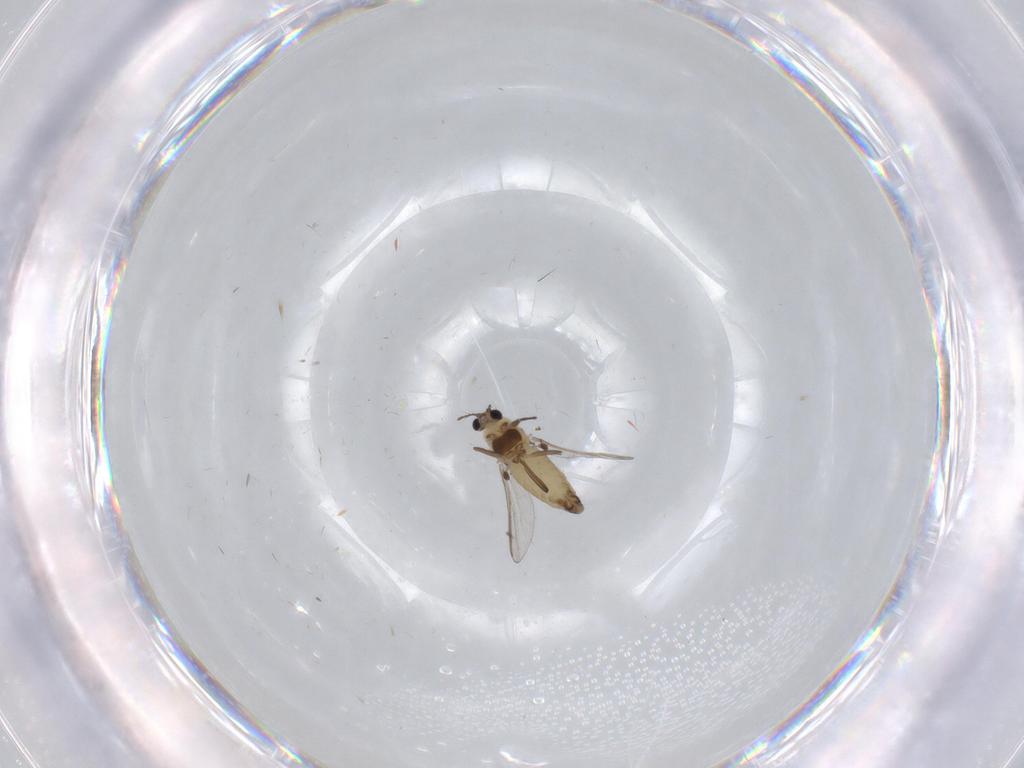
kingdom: Animalia
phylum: Arthropoda
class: Insecta
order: Diptera
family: Chironomidae
